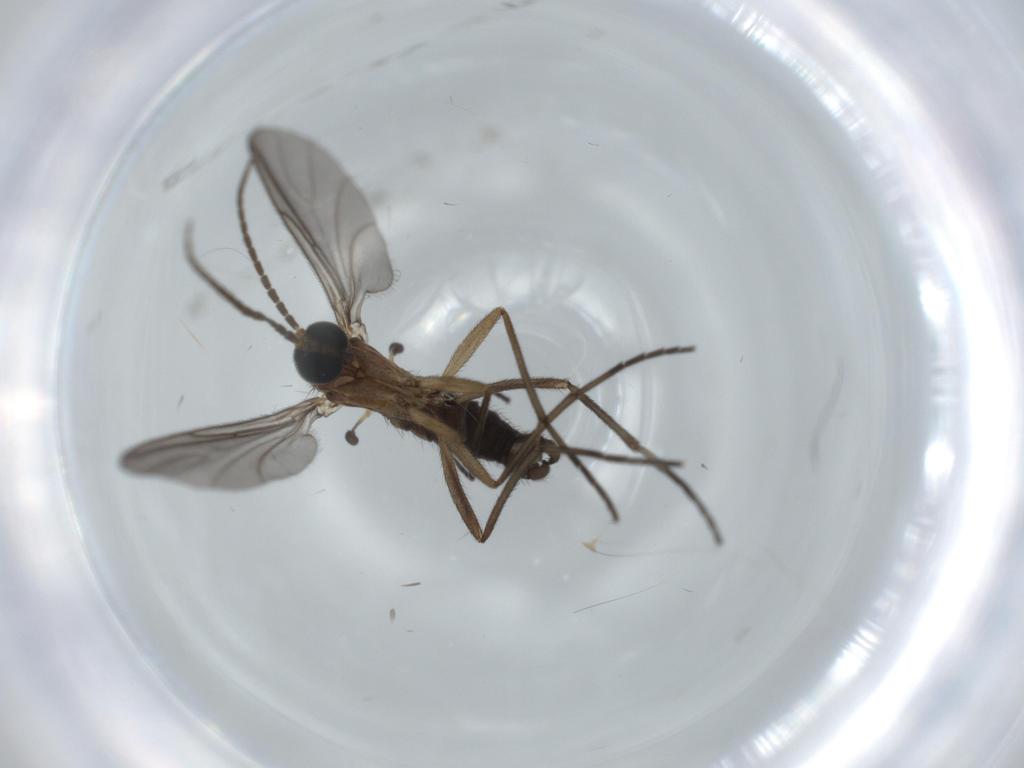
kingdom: Animalia
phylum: Arthropoda
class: Insecta
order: Diptera
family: Sciaridae
